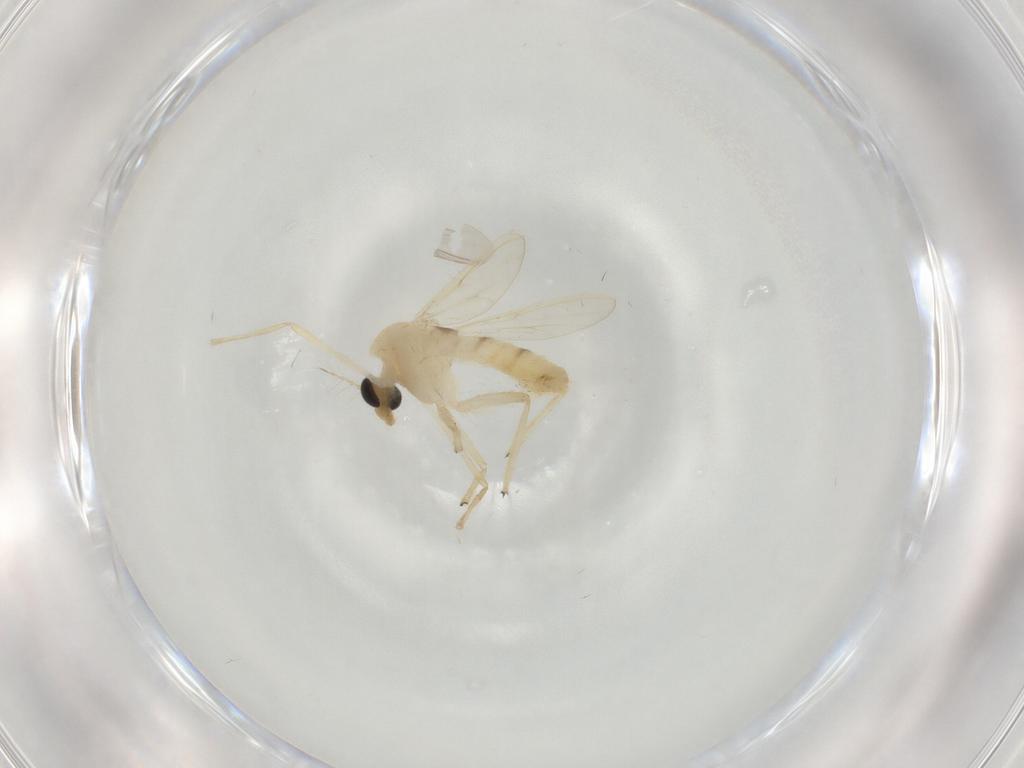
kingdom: Animalia
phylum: Arthropoda
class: Insecta
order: Diptera
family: Chironomidae
